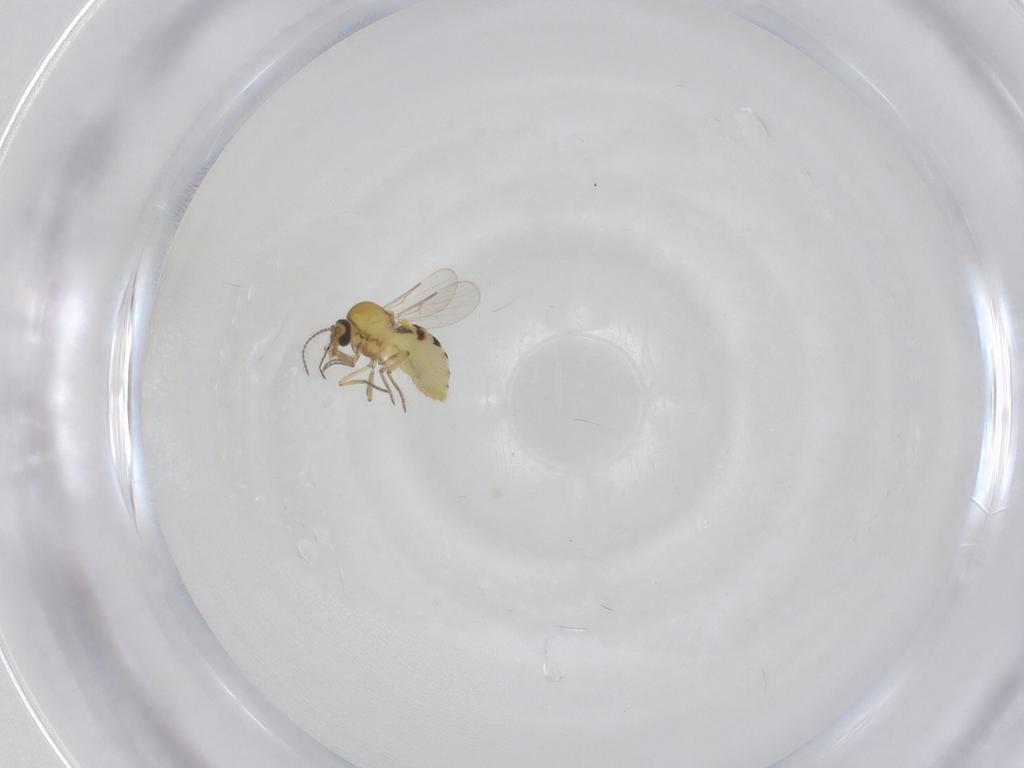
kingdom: Animalia
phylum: Arthropoda
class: Insecta
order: Diptera
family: Ceratopogonidae
